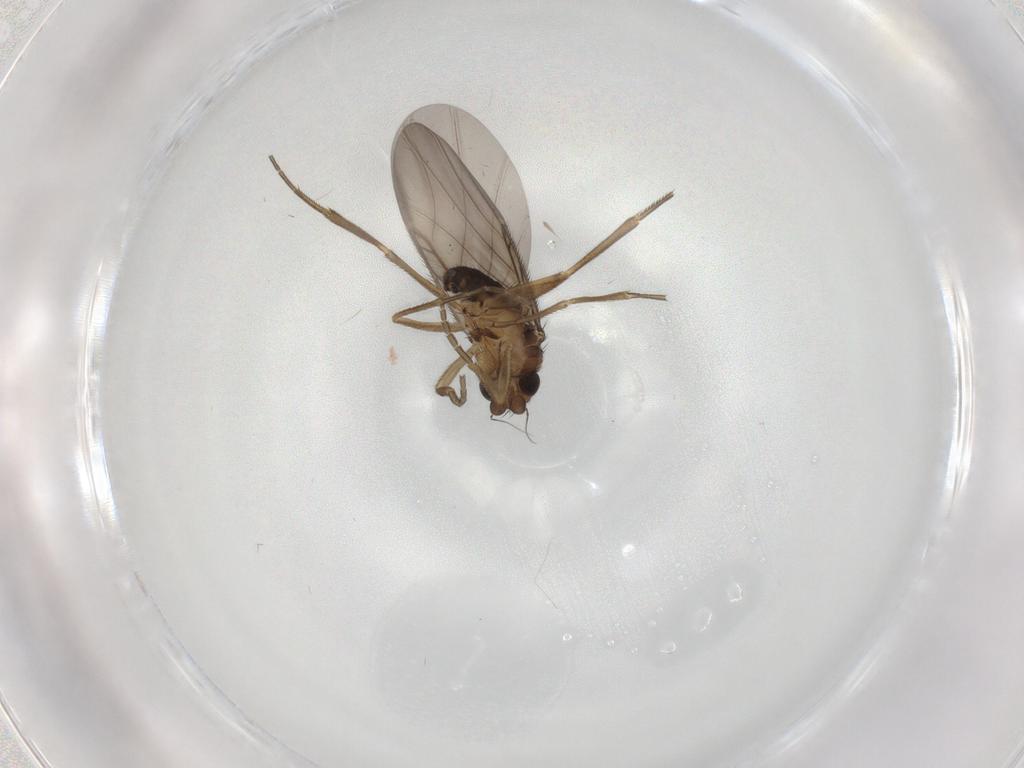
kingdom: Animalia
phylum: Arthropoda
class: Insecta
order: Diptera
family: Phoridae
